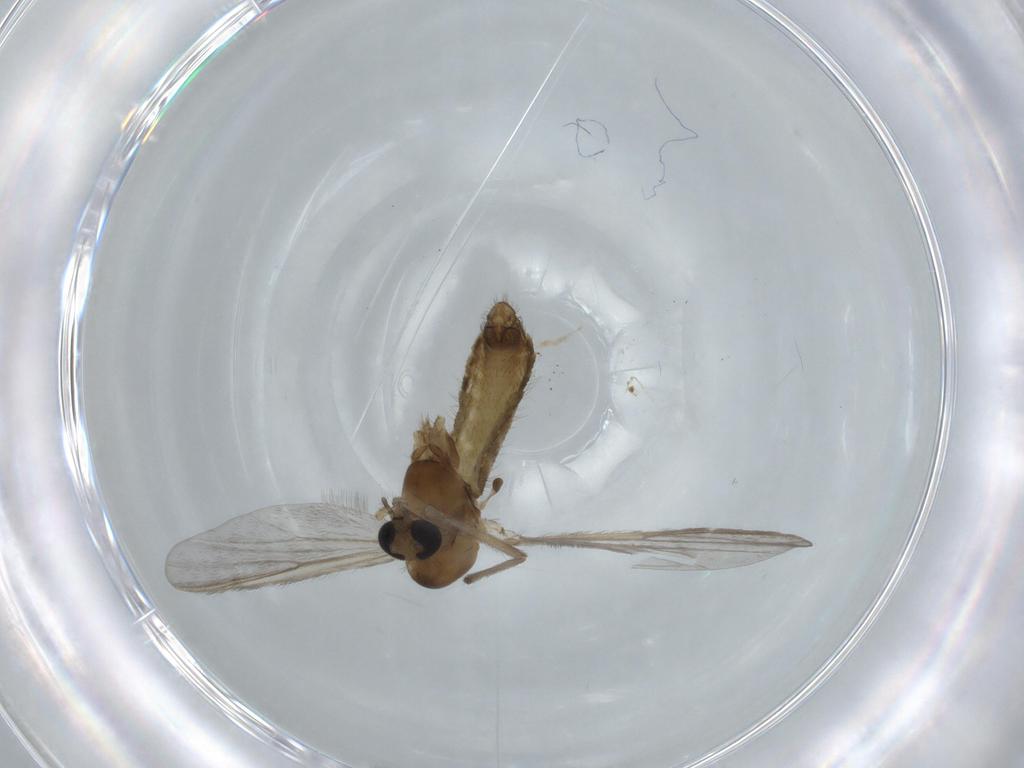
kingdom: Animalia
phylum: Arthropoda
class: Insecta
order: Diptera
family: Chironomidae
